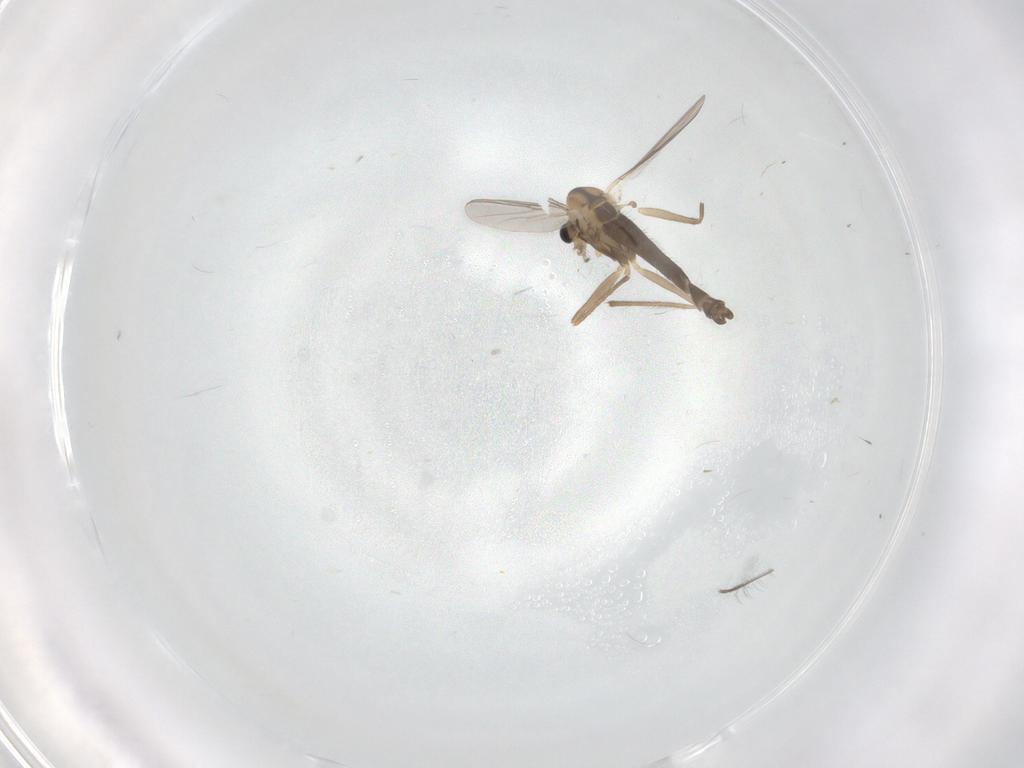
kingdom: Animalia
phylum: Arthropoda
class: Insecta
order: Diptera
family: Chironomidae
